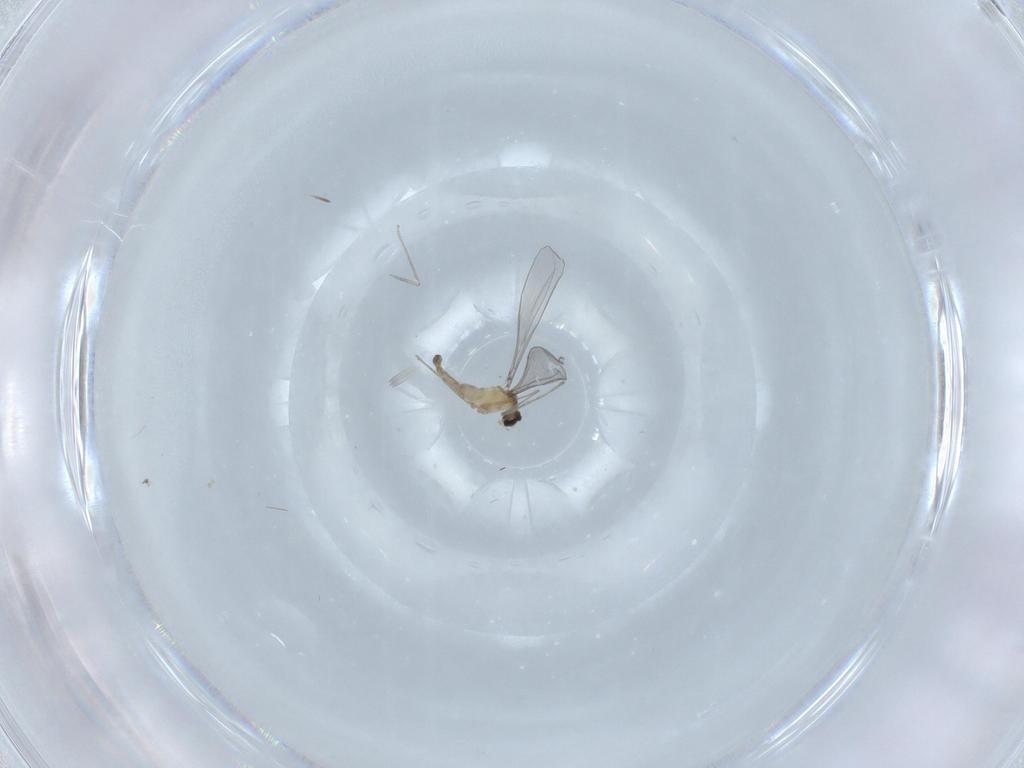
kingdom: Animalia
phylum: Arthropoda
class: Insecta
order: Diptera
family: Cecidomyiidae
